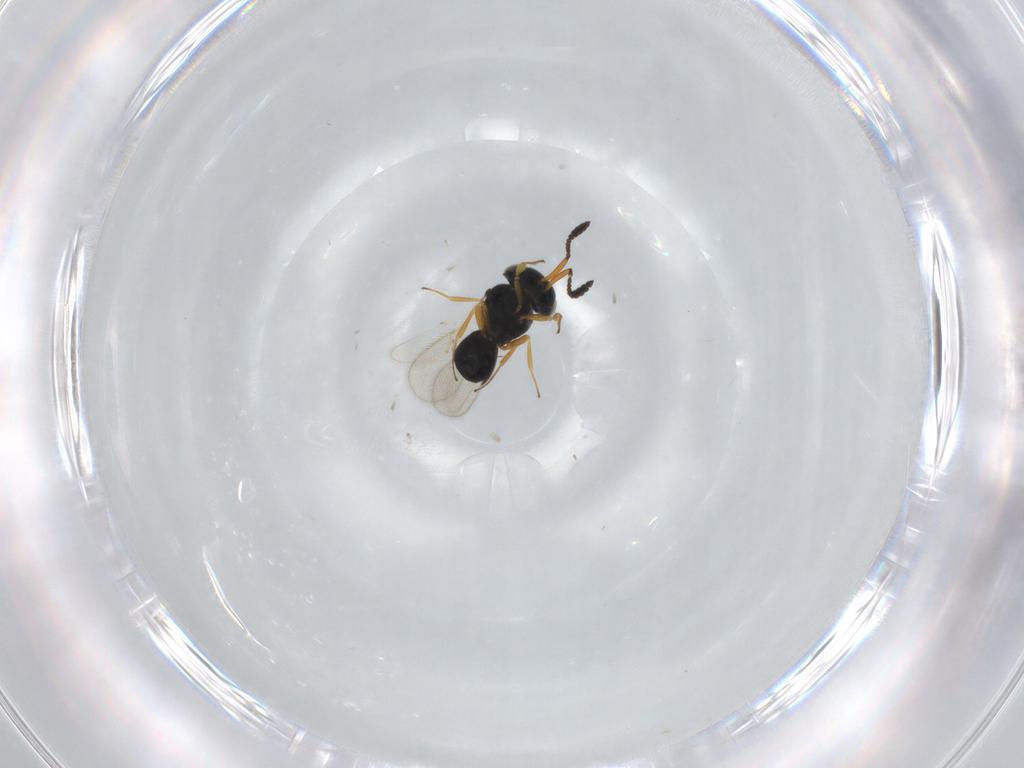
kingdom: Animalia
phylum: Arthropoda
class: Insecta
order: Hymenoptera
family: Scelionidae
